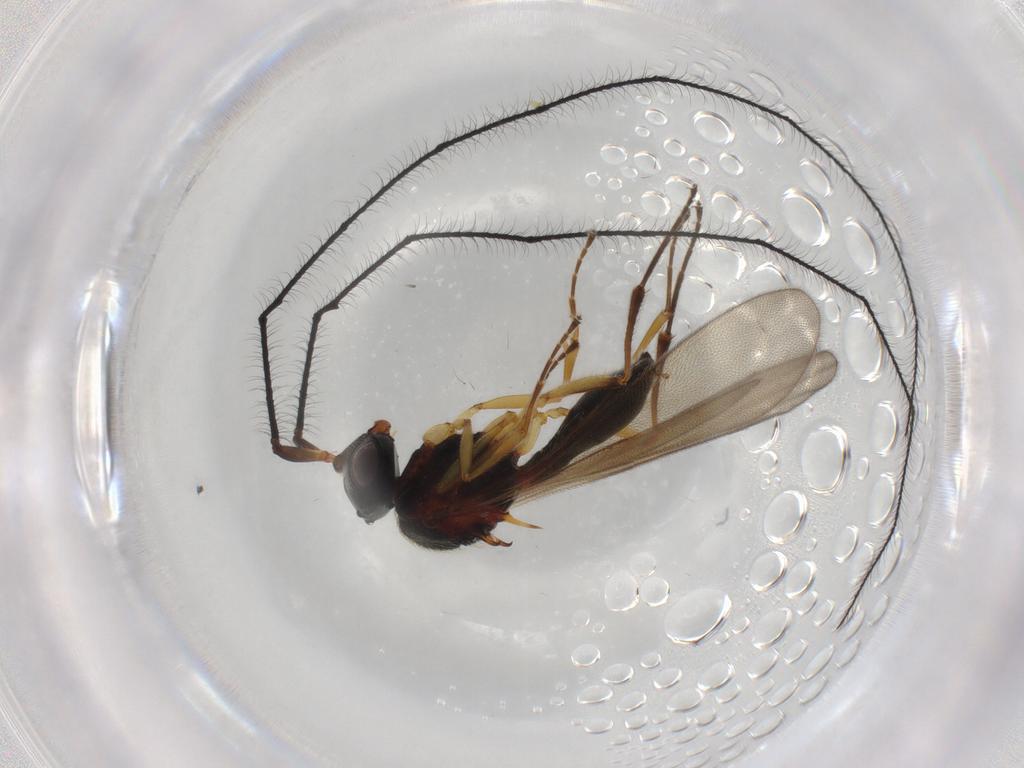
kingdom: Animalia
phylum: Arthropoda
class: Insecta
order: Hymenoptera
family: Scelionidae
